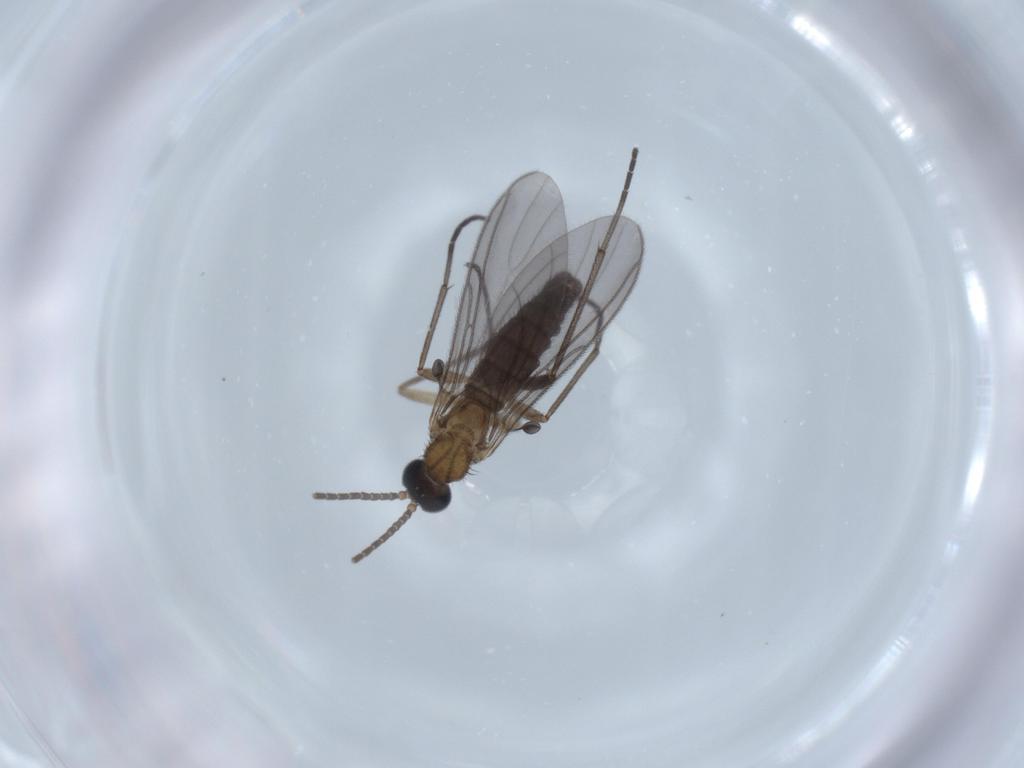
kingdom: Animalia
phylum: Arthropoda
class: Insecta
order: Diptera
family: Sciaridae
